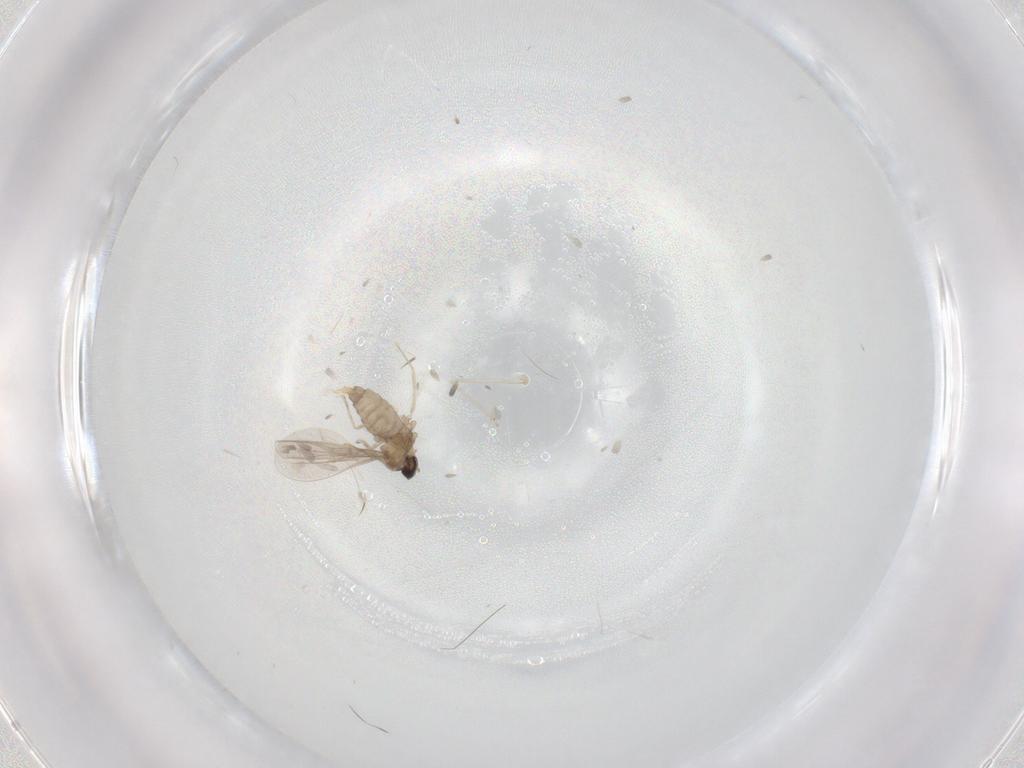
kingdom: Animalia
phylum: Arthropoda
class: Insecta
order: Diptera
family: Cecidomyiidae
